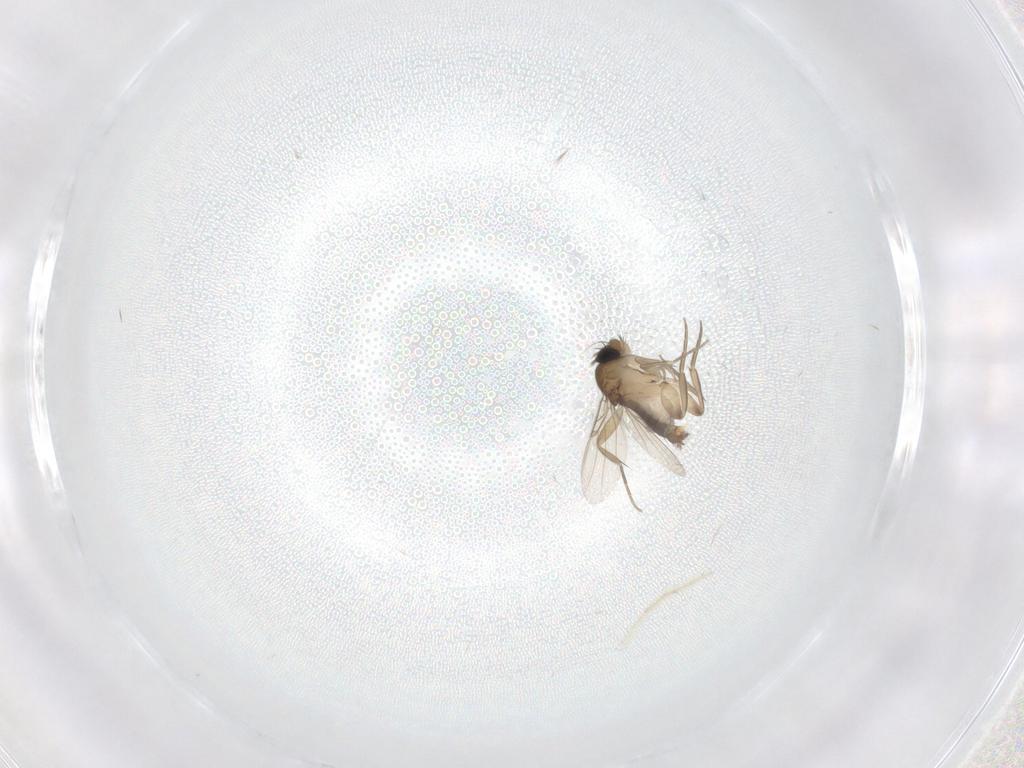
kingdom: Animalia
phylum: Arthropoda
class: Insecta
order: Diptera
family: Phoridae
